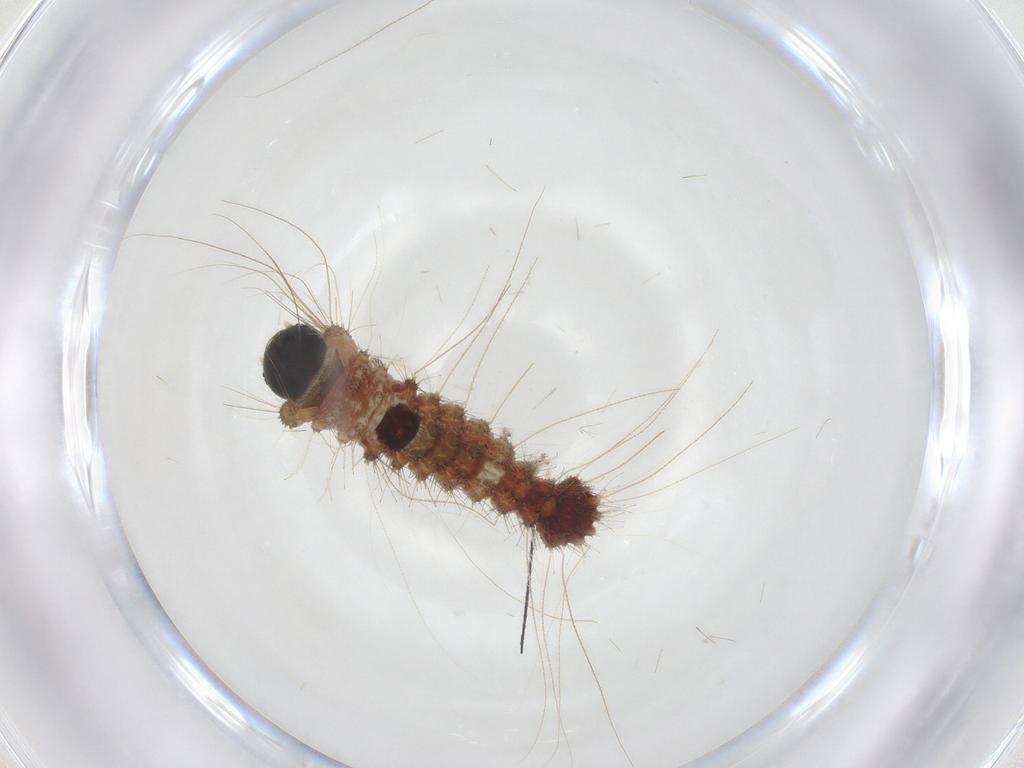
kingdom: Animalia
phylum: Arthropoda
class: Insecta
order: Lepidoptera
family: Erebidae
